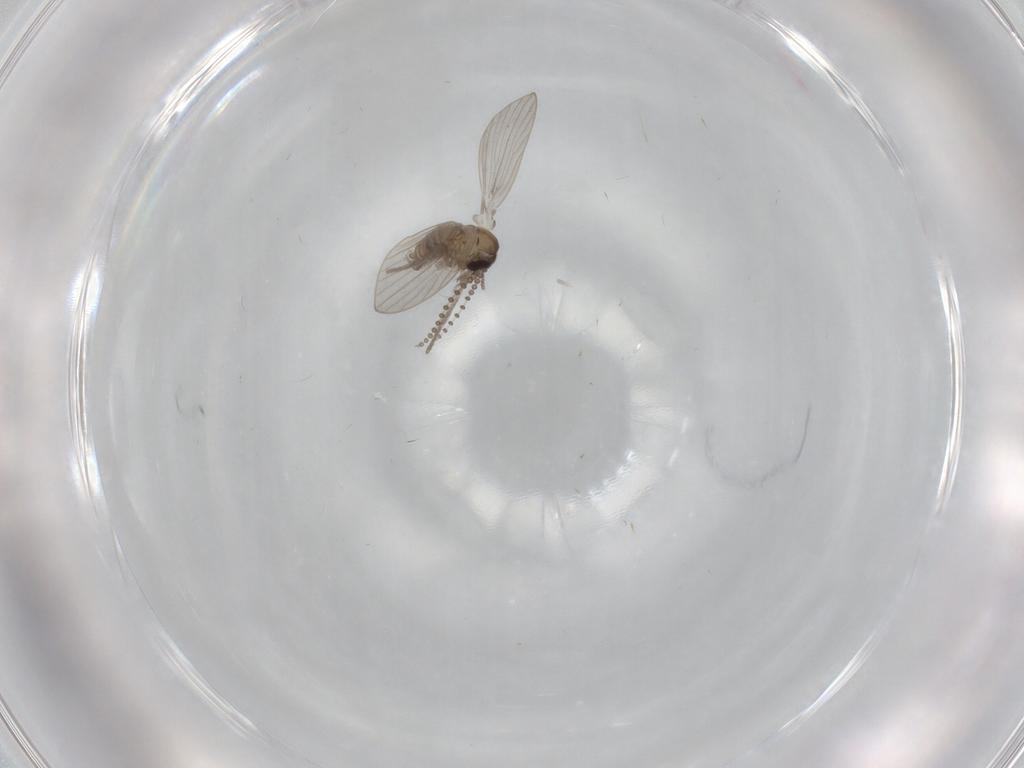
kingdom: Animalia
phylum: Arthropoda
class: Insecta
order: Diptera
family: Psychodidae
